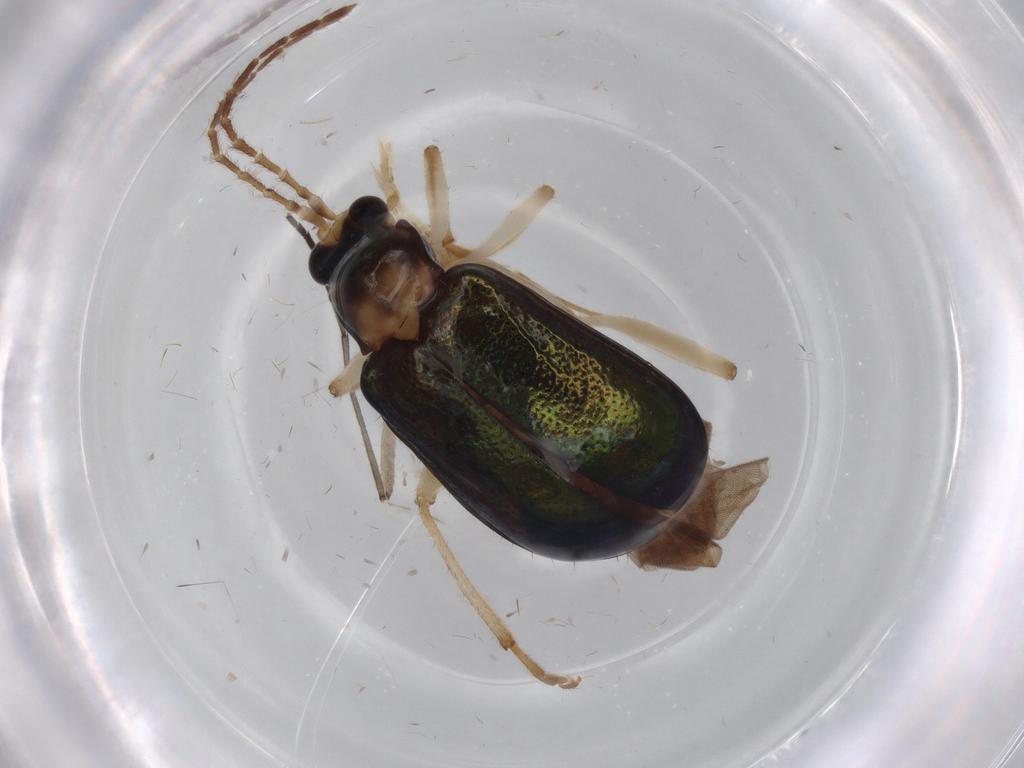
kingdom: Animalia
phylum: Arthropoda
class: Insecta
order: Coleoptera
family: Chrysomelidae
